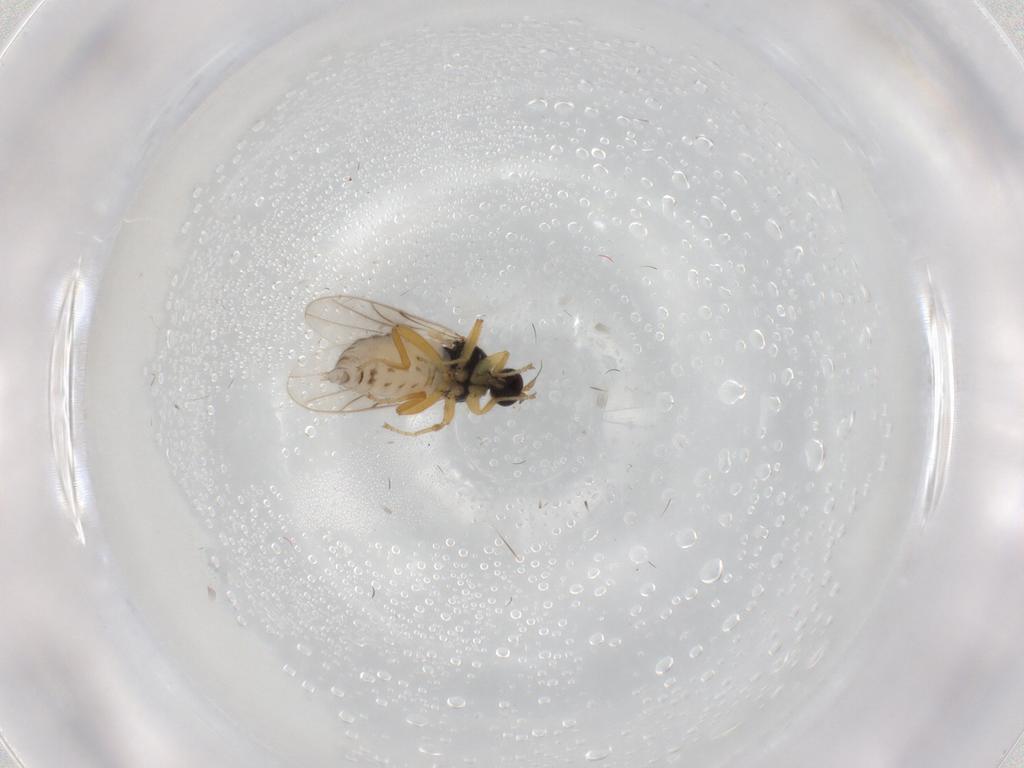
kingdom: Animalia
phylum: Arthropoda
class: Insecta
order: Diptera
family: Hybotidae
